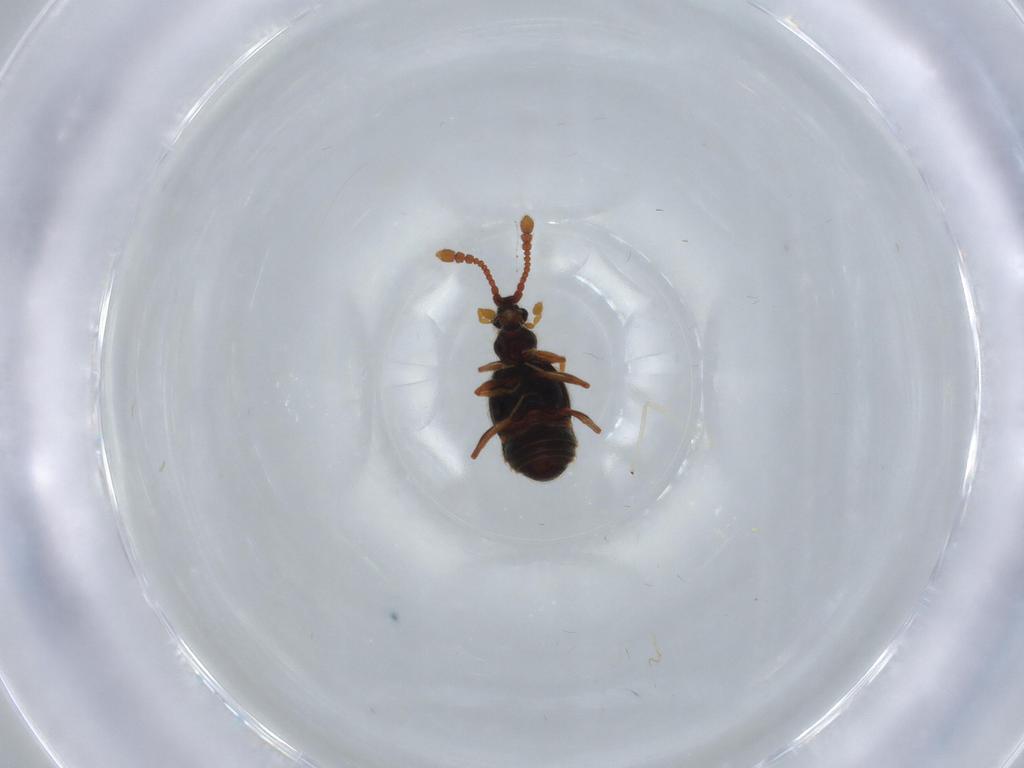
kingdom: Animalia
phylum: Arthropoda
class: Insecta
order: Coleoptera
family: Staphylinidae
